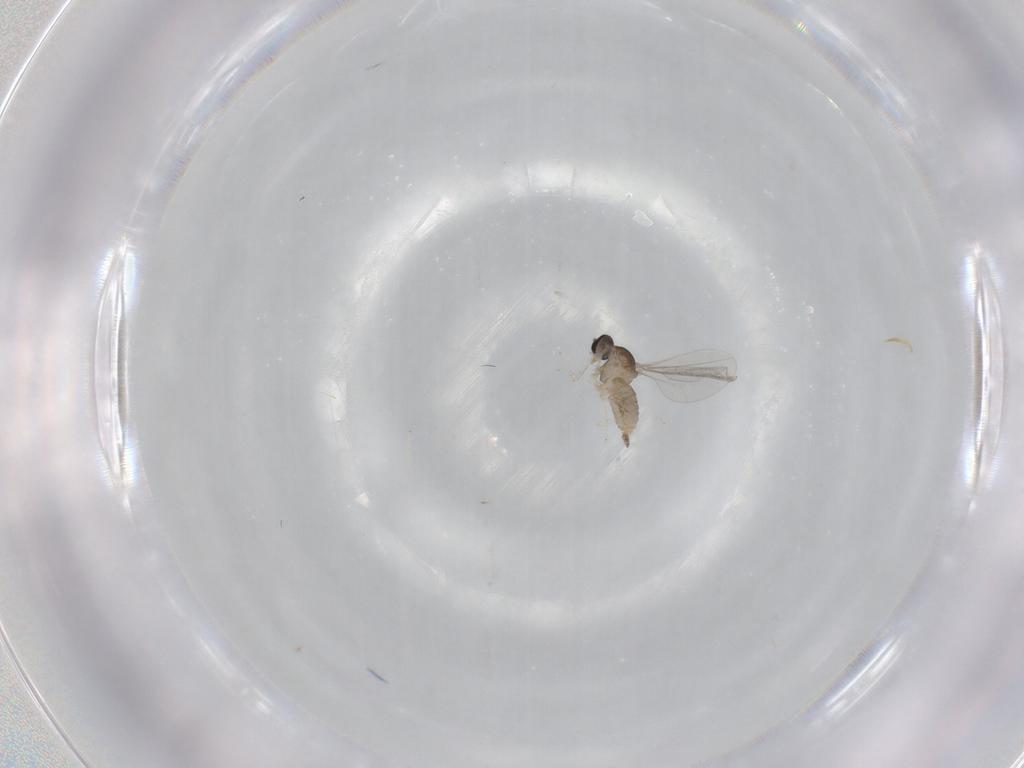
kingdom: Animalia
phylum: Arthropoda
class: Insecta
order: Diptera
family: Cecidomyiidae
